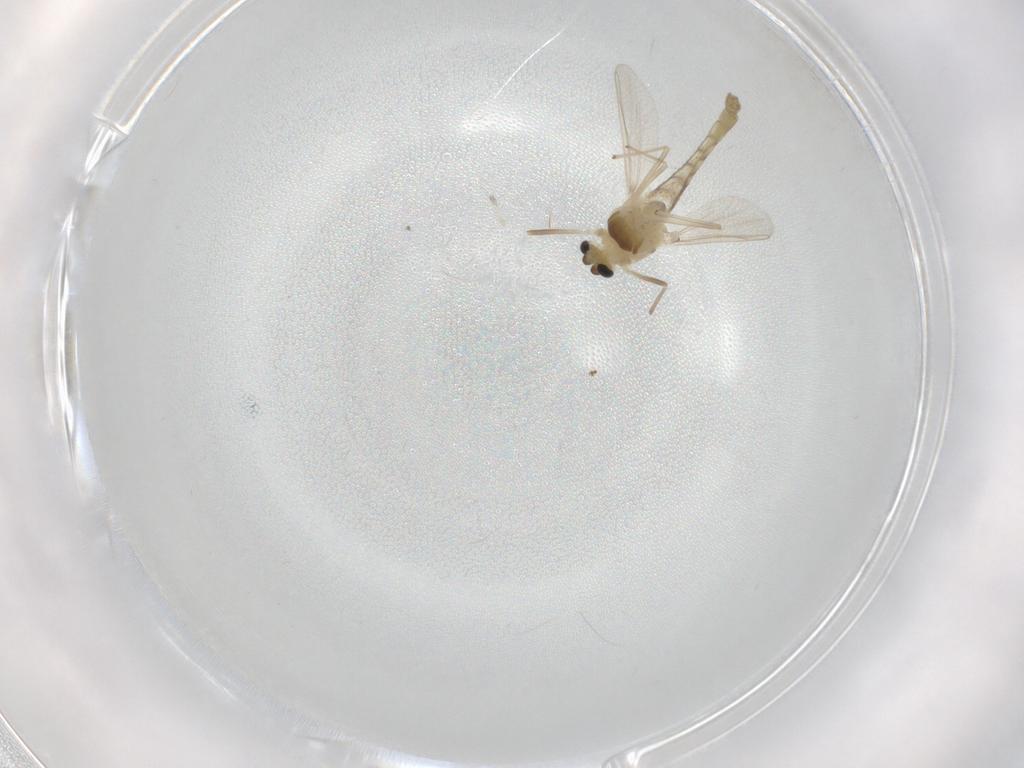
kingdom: Animalia
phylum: Arthropoda
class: Insecta
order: Diptera
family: Chironomidae
